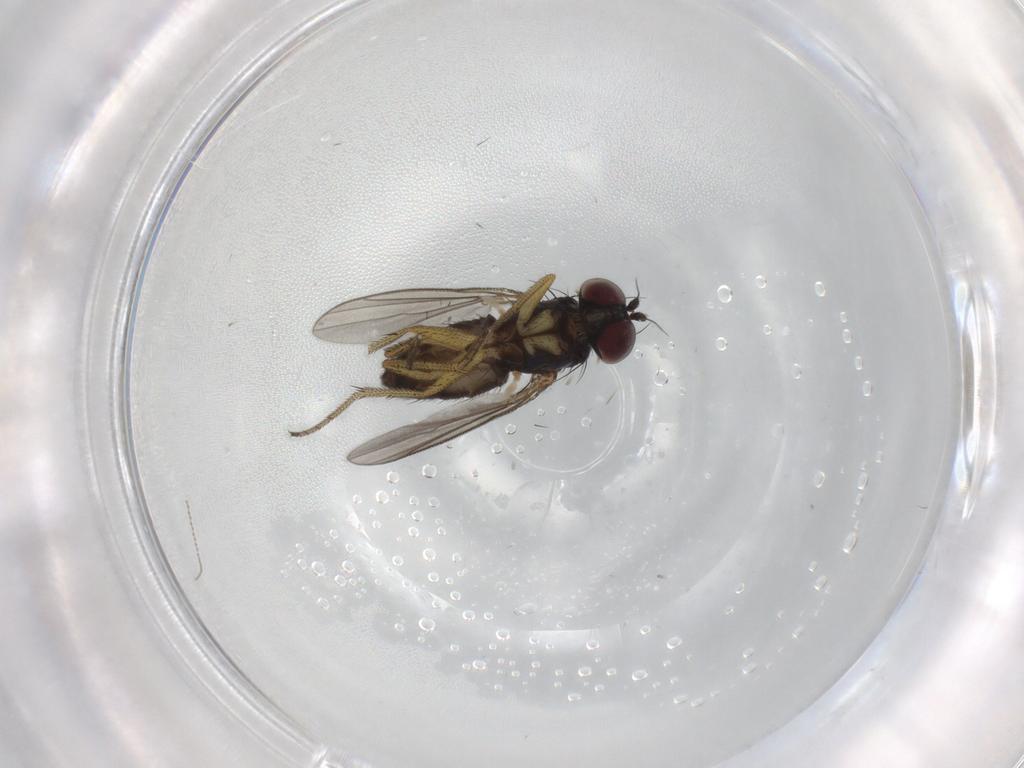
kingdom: Animalia
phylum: Arthropoda
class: Insecta
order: Diptera
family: Dolichopodidae
